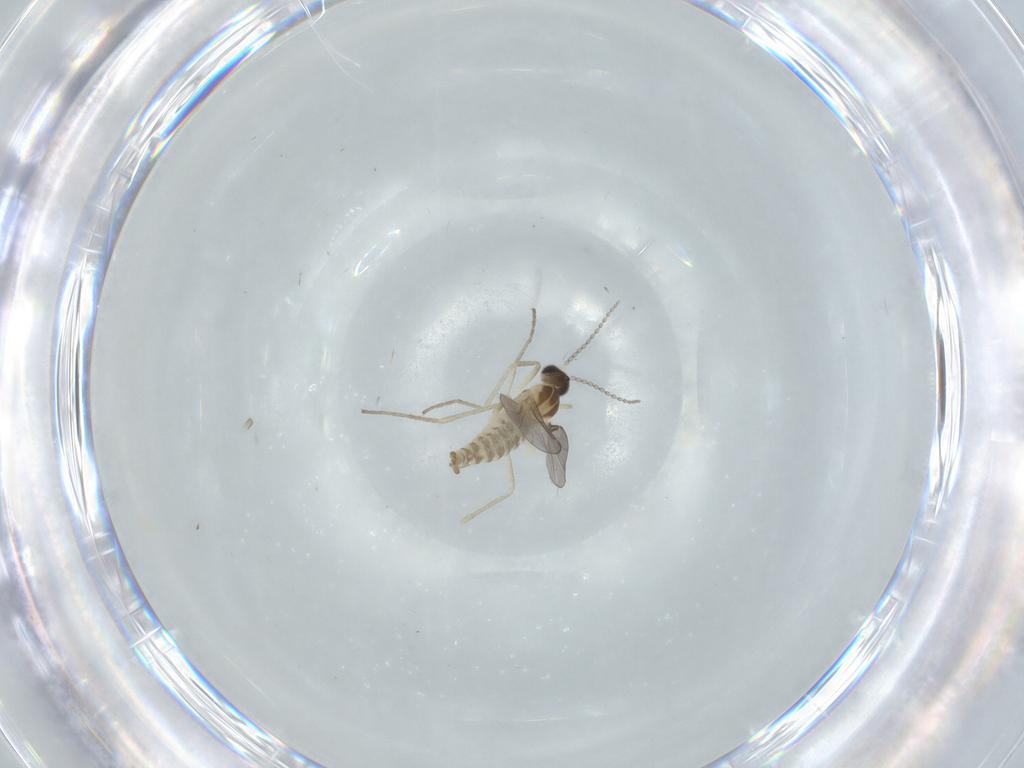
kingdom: Animalia
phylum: Arthropoda
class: Insecta
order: Diptera
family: Cecidomyiidae
